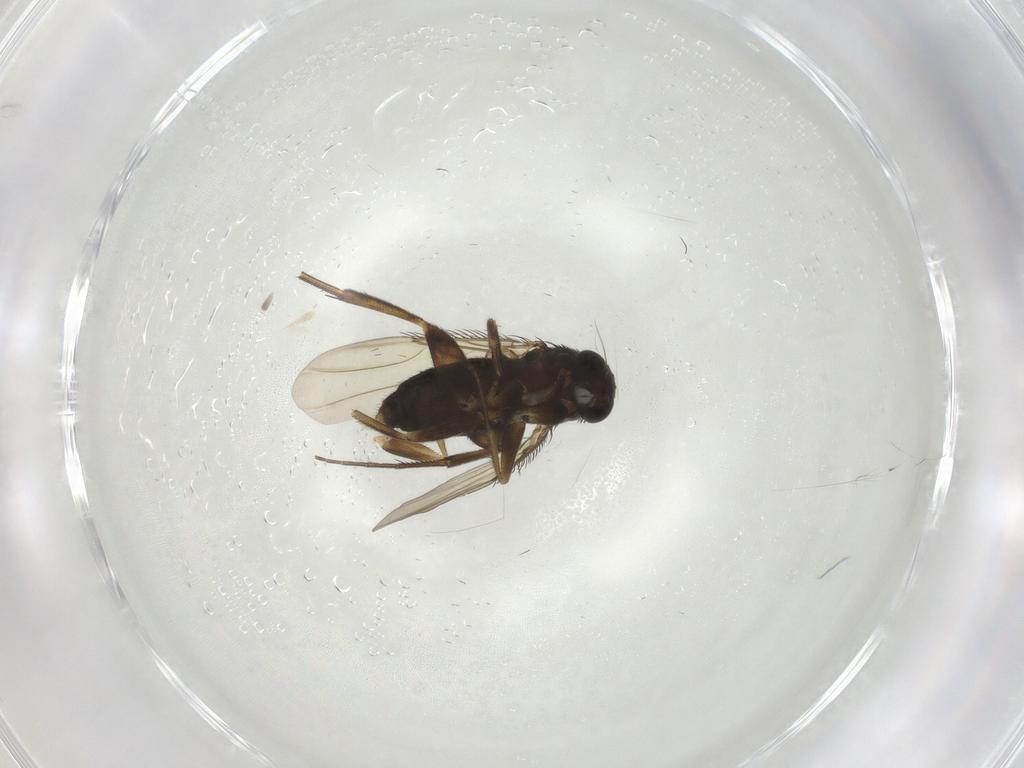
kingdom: Animalia
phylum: Arthropoda
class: Insecta
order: Diptera
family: Phoridae
